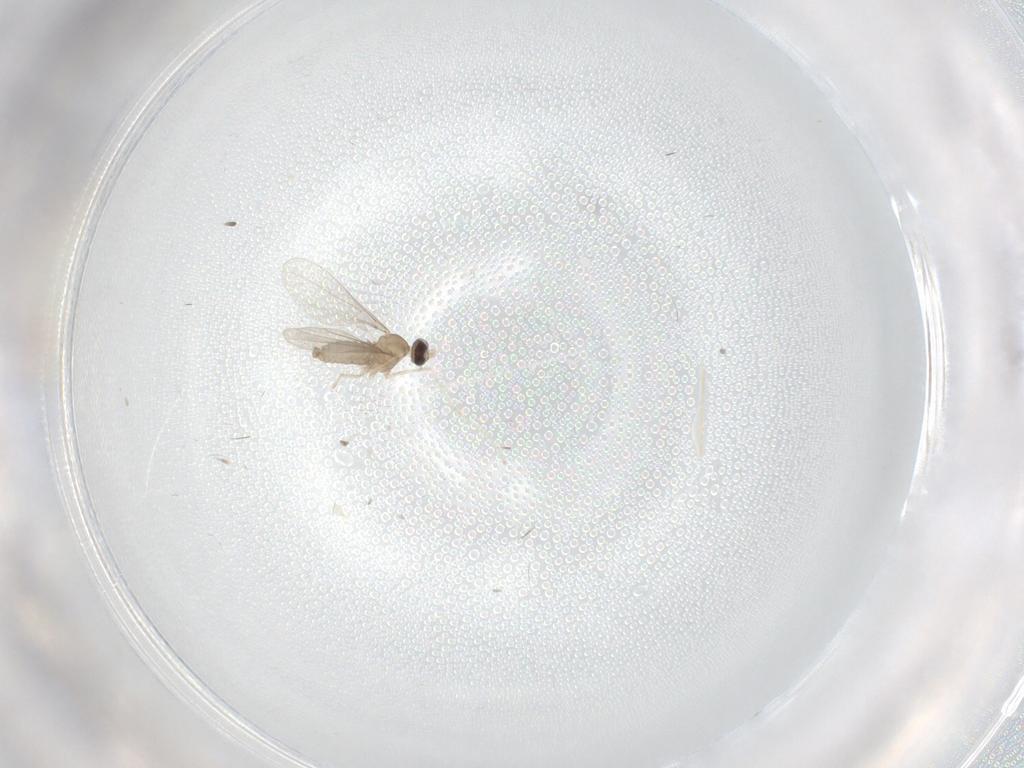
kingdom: Animalia
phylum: Arthropoda
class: Insecta
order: Diptera
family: Cecidomyiidae
